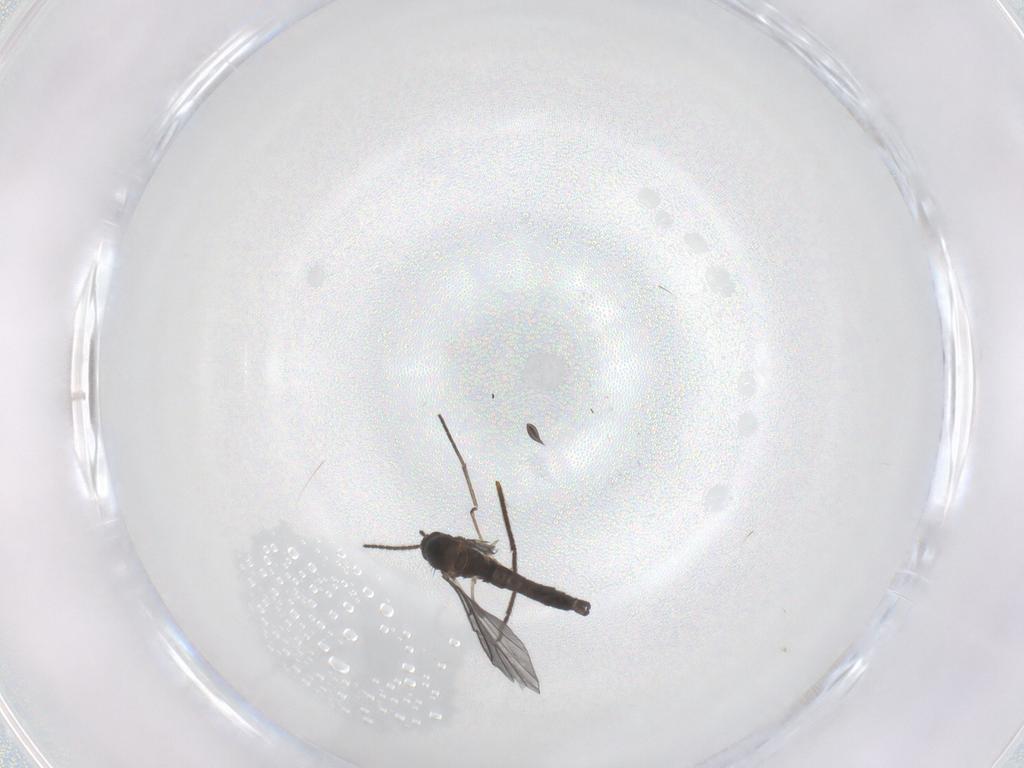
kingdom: Animalia
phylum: Arthropoda
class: Insecta
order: Diptera
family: Sciaridae
